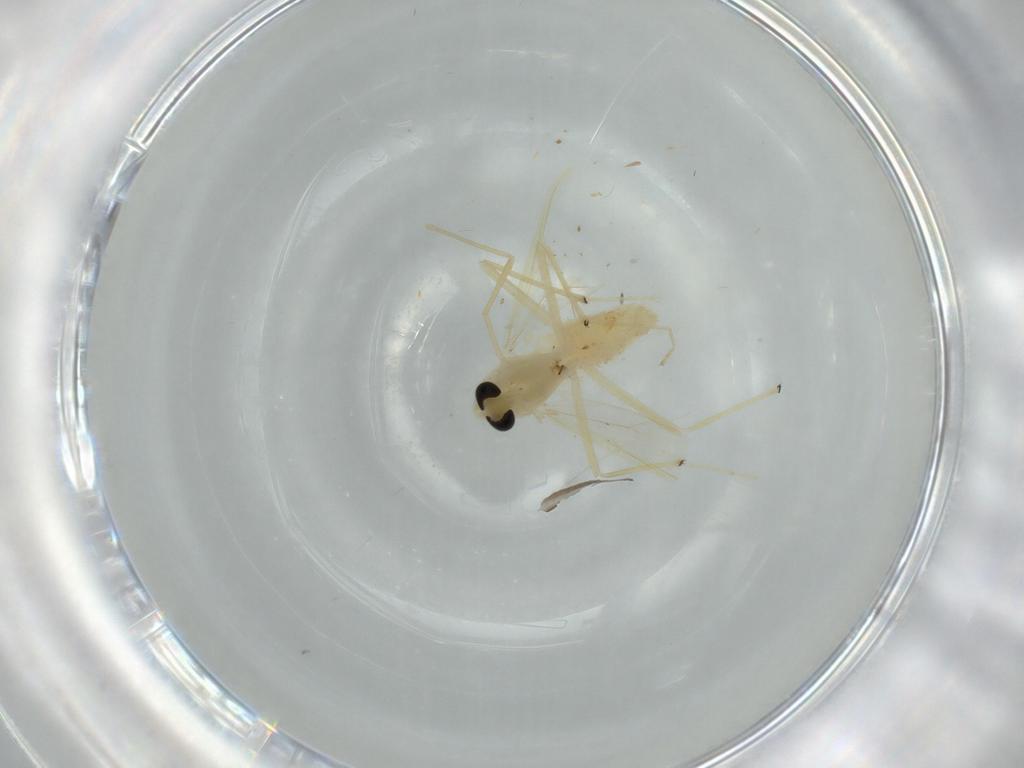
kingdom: Animalia
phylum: Arthropoda
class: Insecta
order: Diptera
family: Chironomidae
